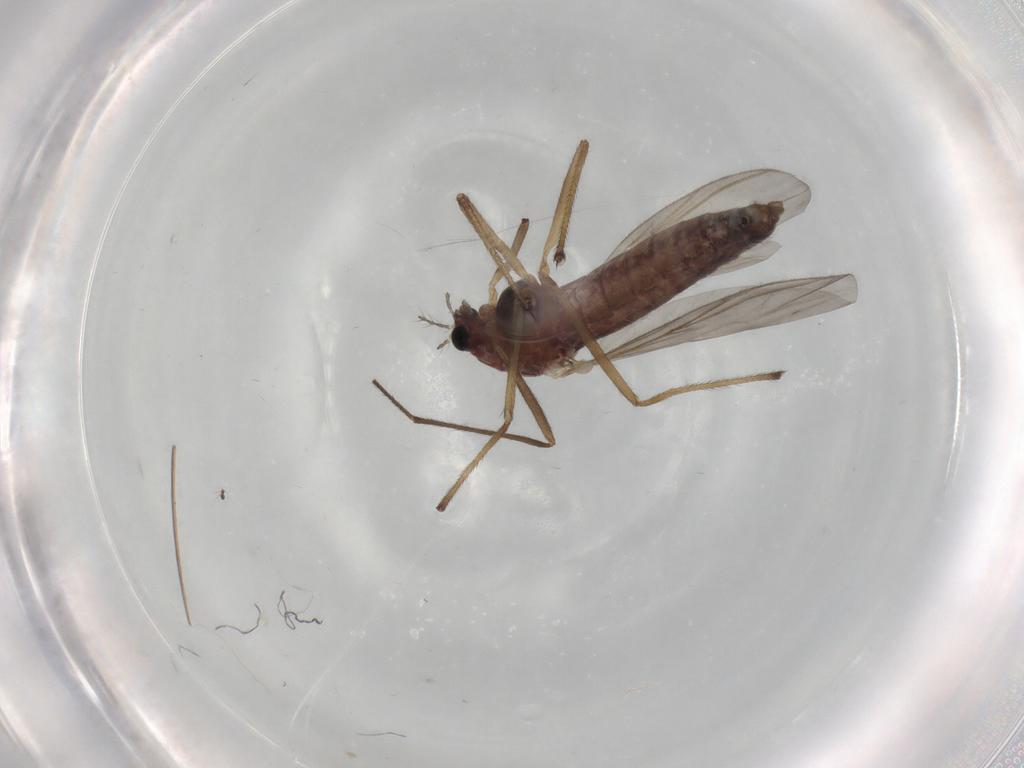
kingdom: Animalia
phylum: Arthropoda
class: Insecta
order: Diptera
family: Chironomidae
